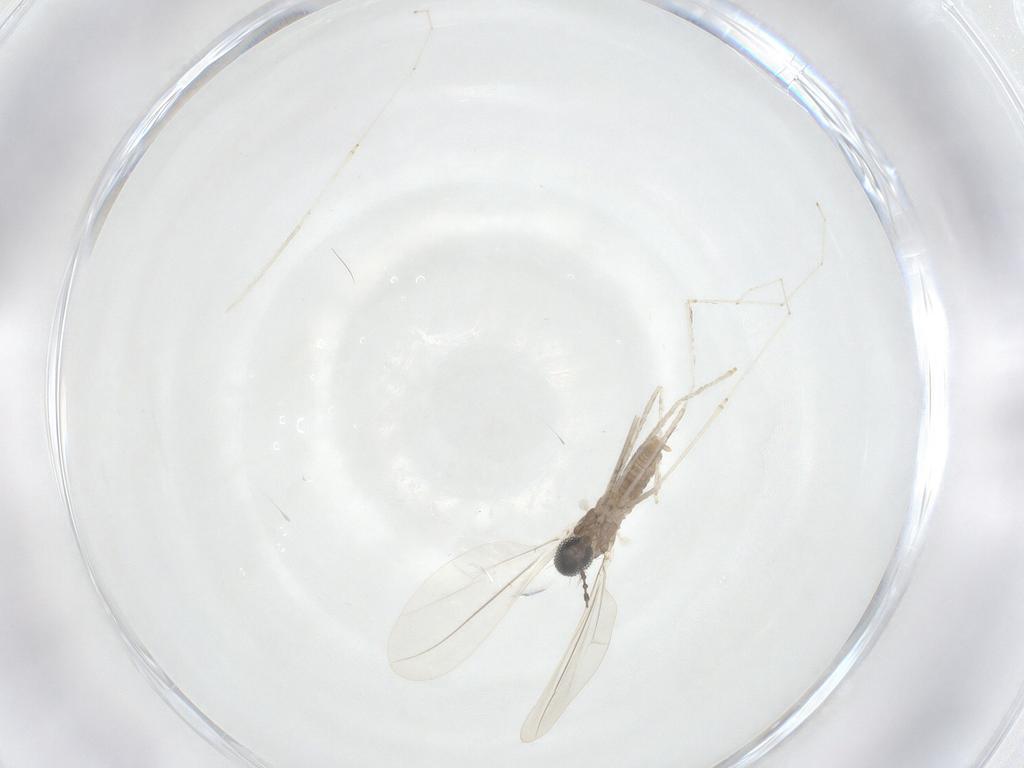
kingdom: Animalia
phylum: Arthropoda
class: Insecta
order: Diptera
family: Cecidomyiidae
